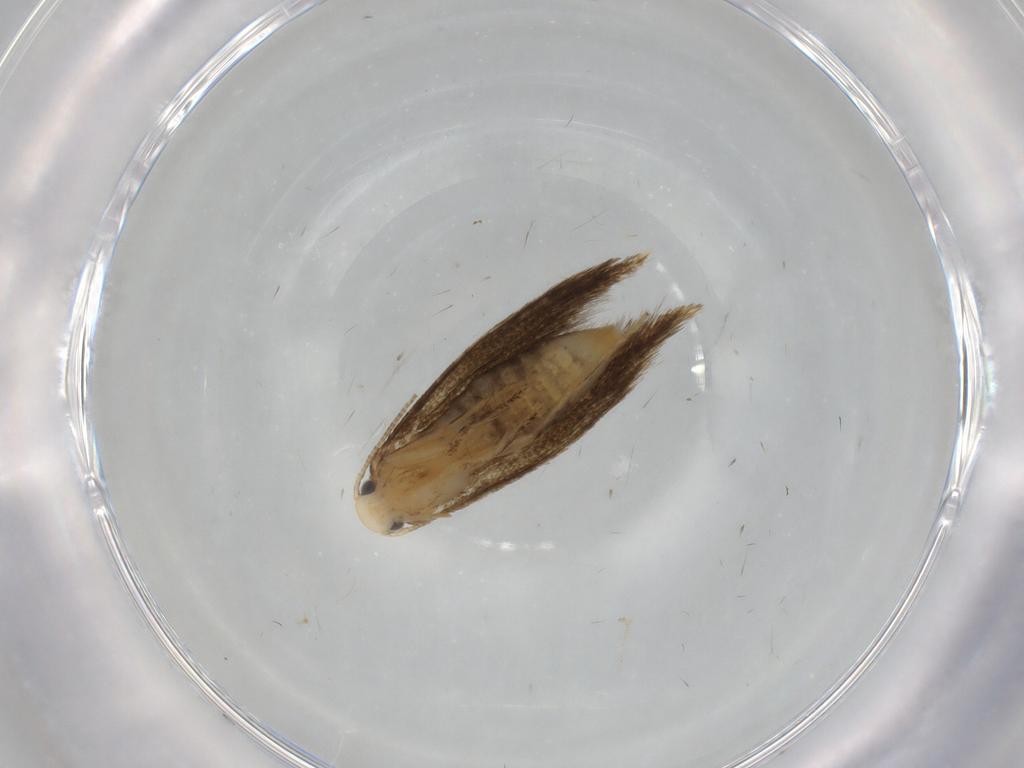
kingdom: Animalia
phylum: Arthropoda
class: Insecta
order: Lepidoptera
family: Tineidae
